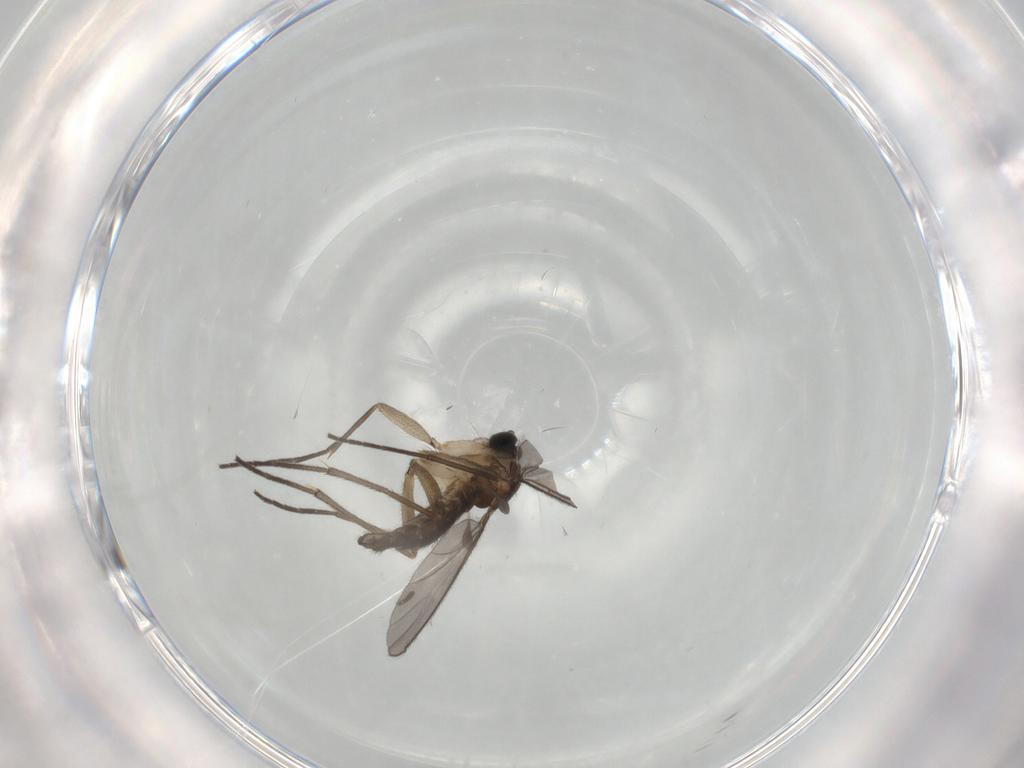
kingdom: Animalia
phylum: Arthropoda
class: Insecta
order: Diptera
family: Sciaridae
